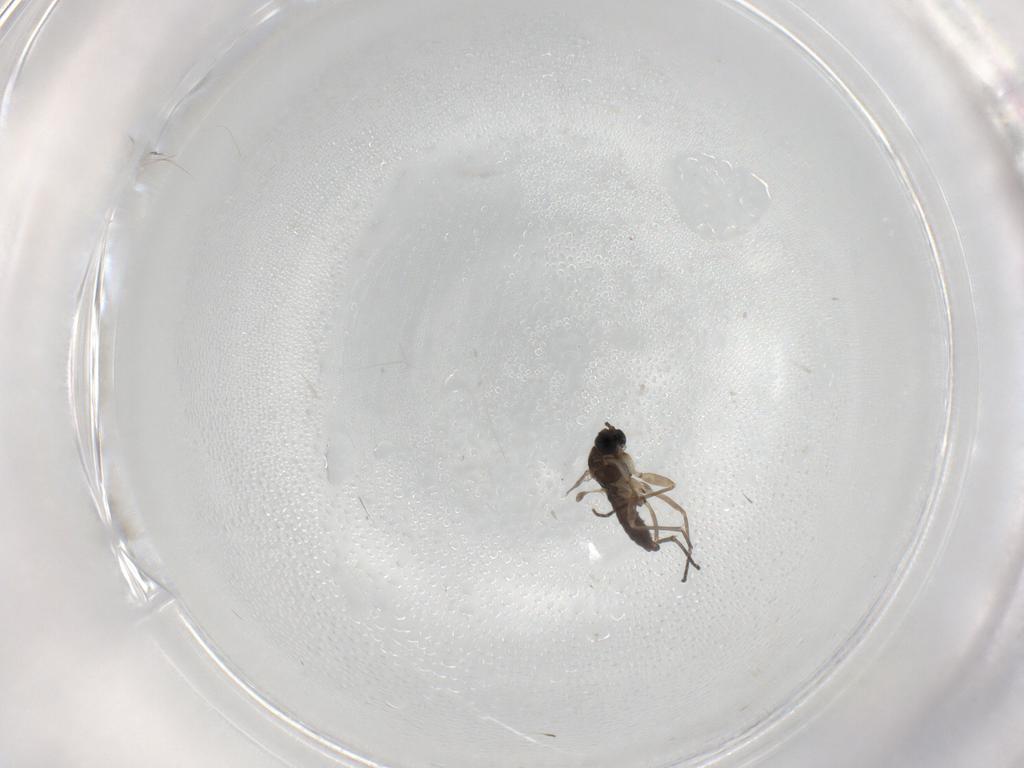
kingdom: Animalia
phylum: Arthropoda
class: Insecta
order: Diptera
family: Sciaridae
